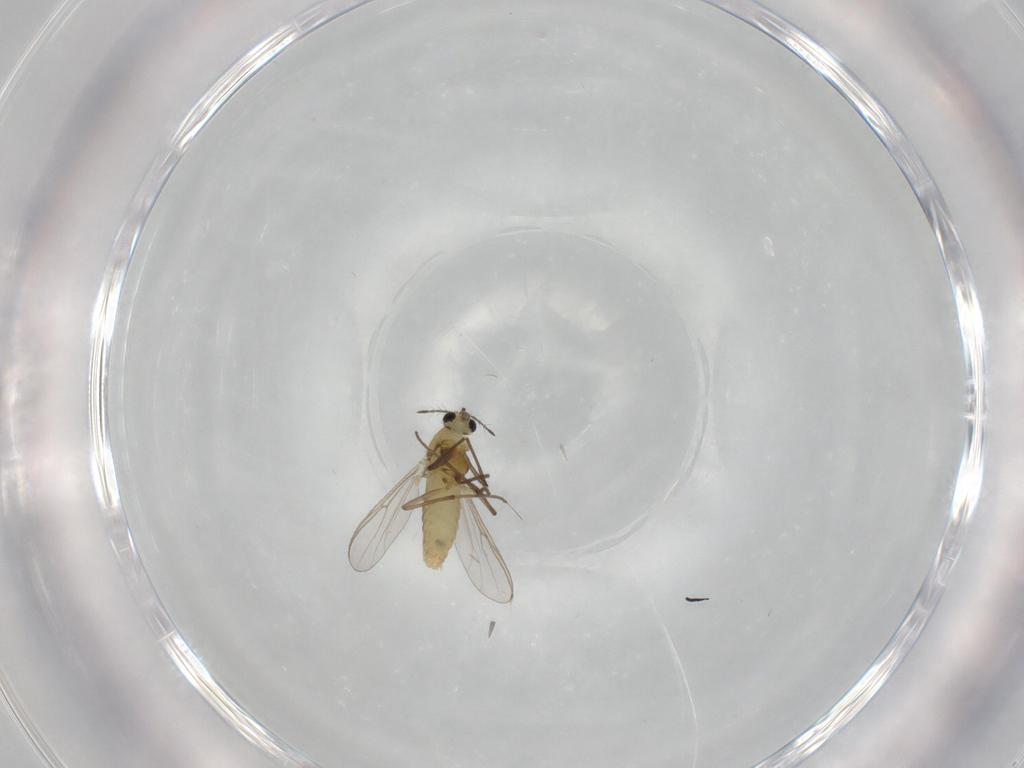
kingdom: Animalia
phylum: Arthropoda
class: Insecta
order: Diptera
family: Chironomidae
